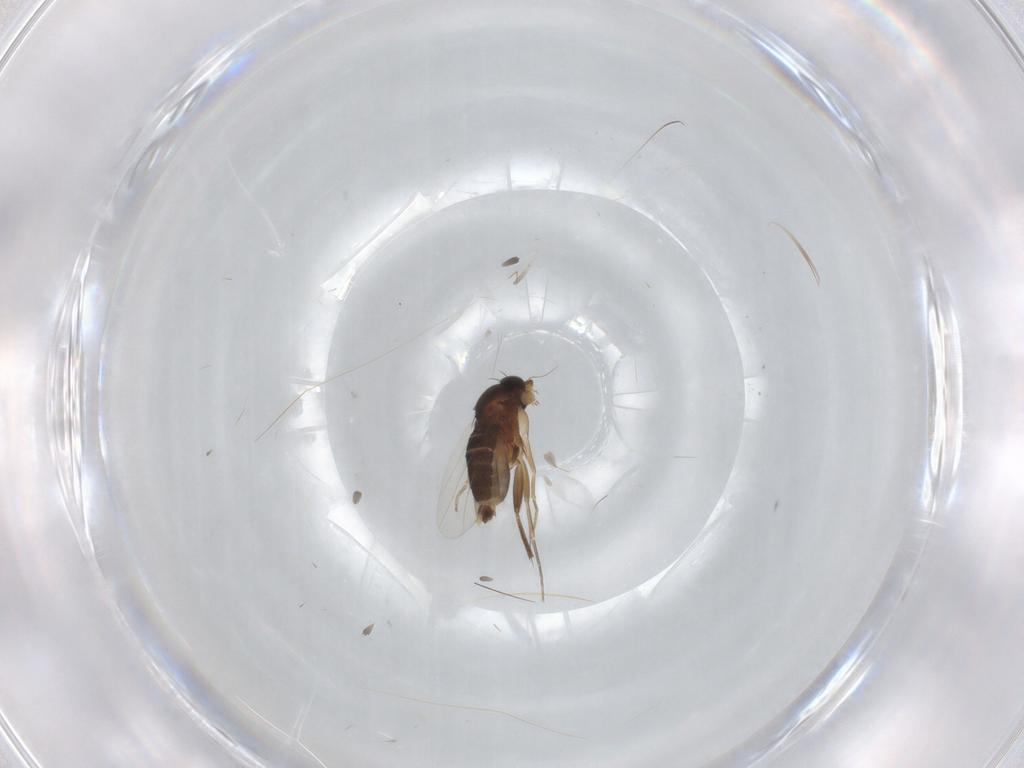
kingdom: Animalia
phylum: Arthropoda
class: Insecta
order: Diptera
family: Phoridae
